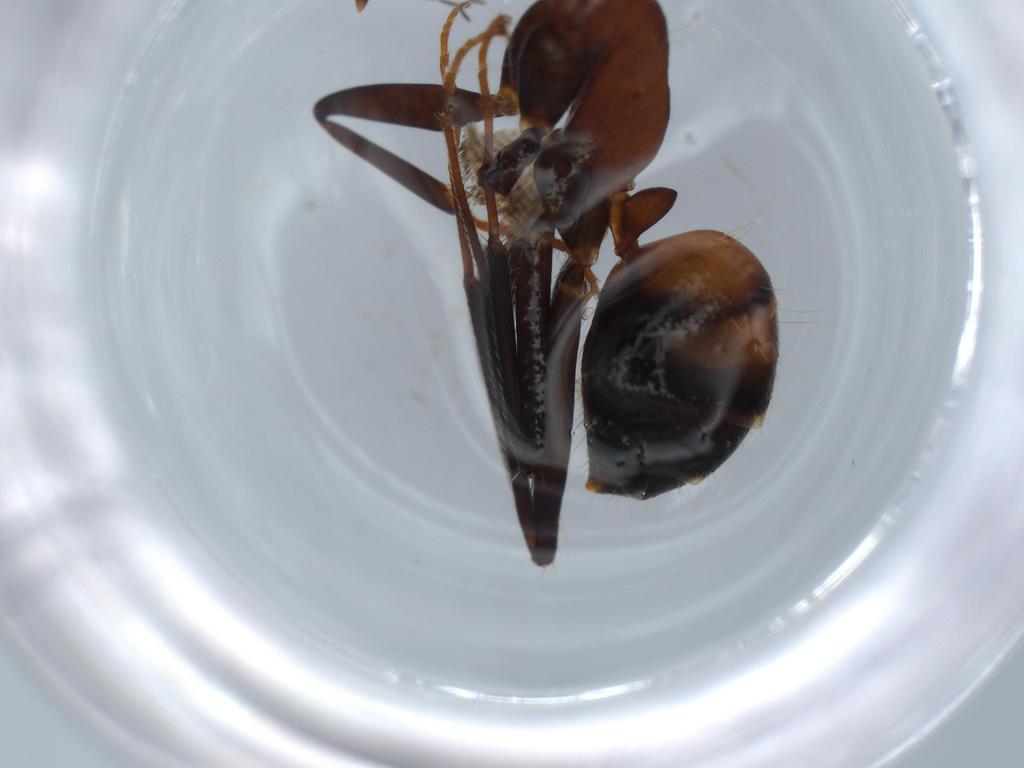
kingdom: Animalia
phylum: Arthropoda
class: Insecta
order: Hymenoptera
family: Formicidae
